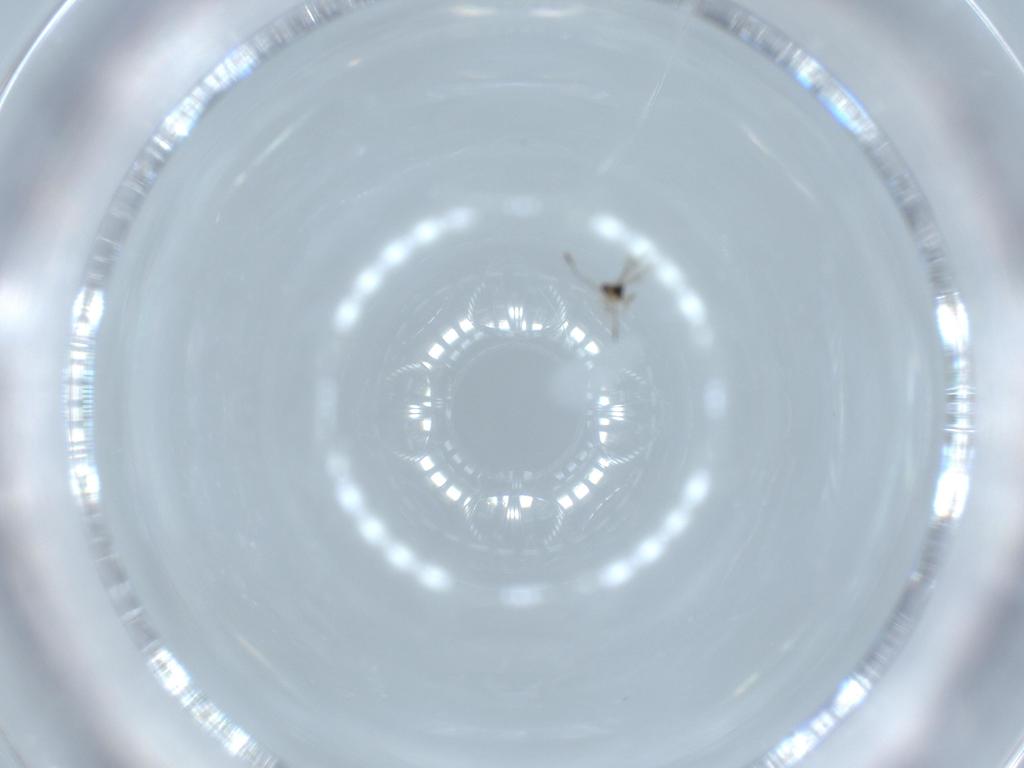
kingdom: Animalia
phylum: Arthropoda
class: Insecta
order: Hymenoptera
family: Mymaridae
